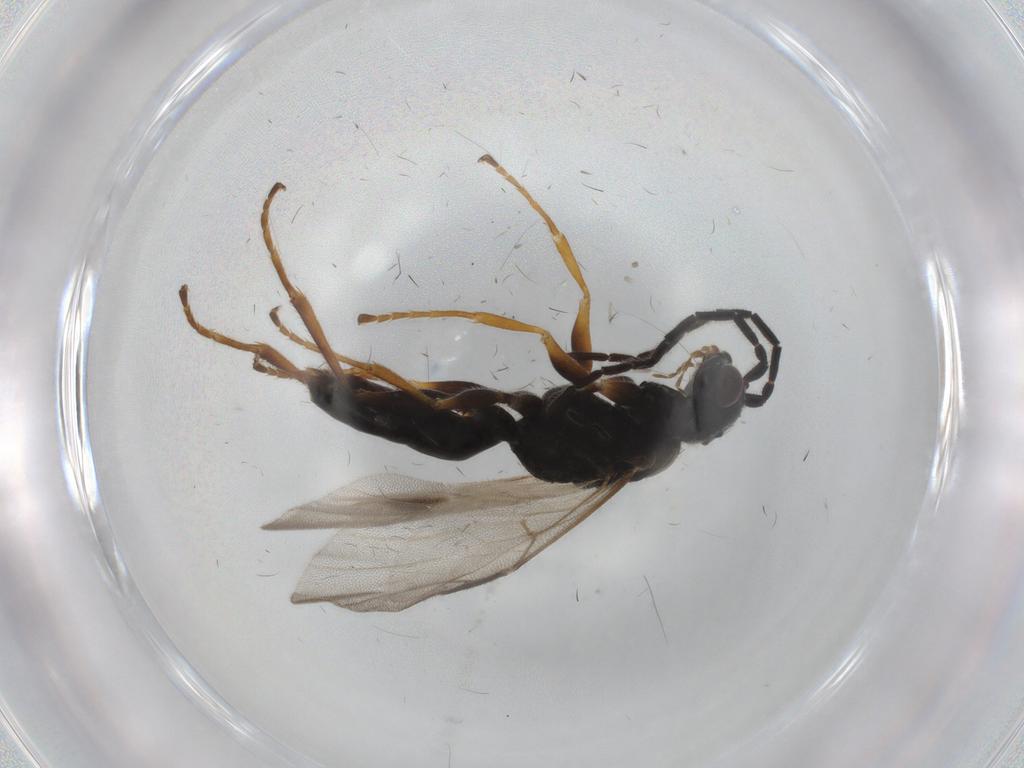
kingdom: Animalia
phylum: Arthropoda
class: Insecta
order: Hymenoptera
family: Dryinidae
